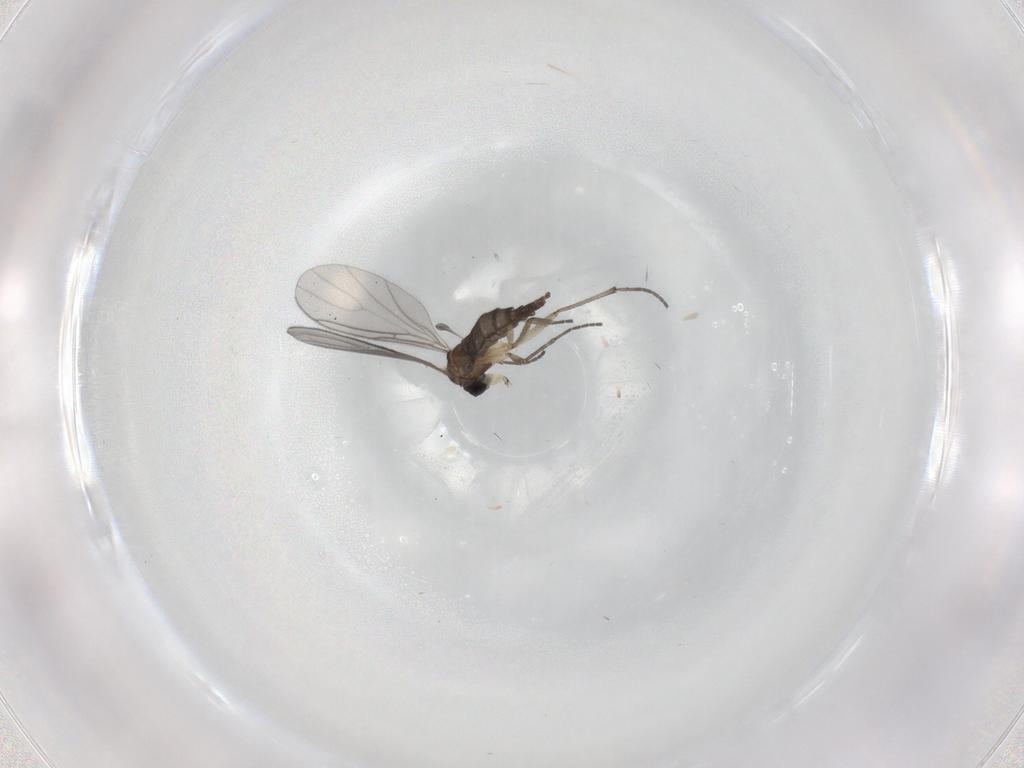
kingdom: Animalia
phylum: Arthropoda
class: Insecta
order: Diptera
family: Sciaridae
